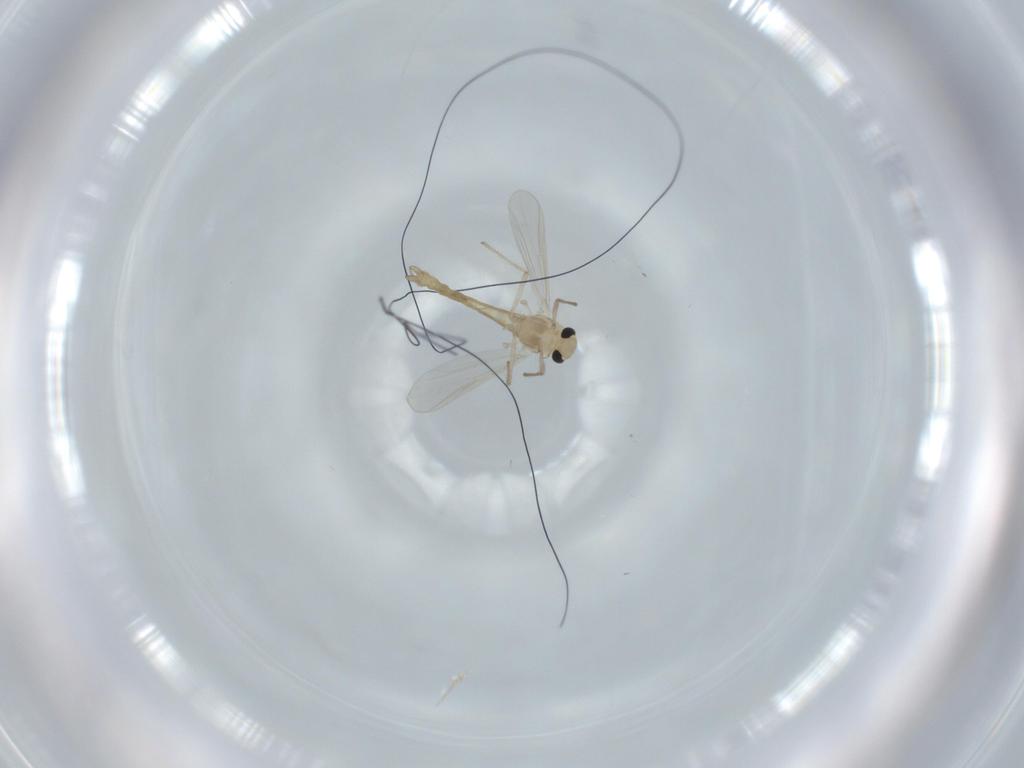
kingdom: Animalia
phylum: Arthropoda
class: Insecta
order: Diptera
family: Chironomidae
